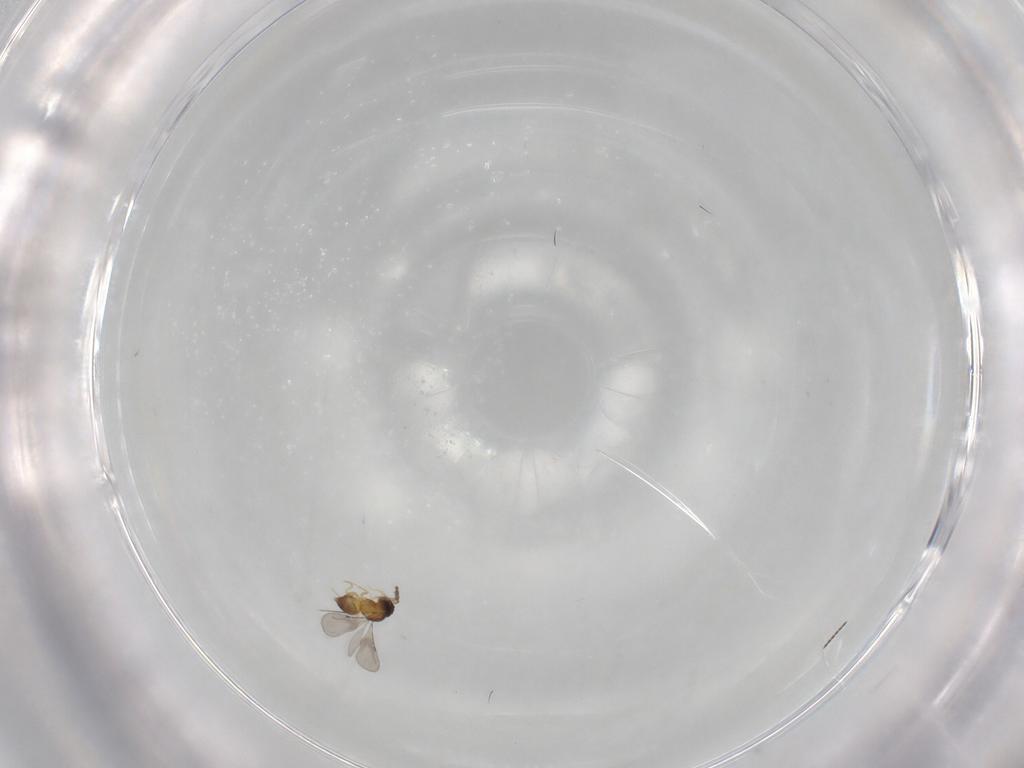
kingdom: Animalia
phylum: Arthropoda
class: Insecta
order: Hymenoptera
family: Ceraphronidae
